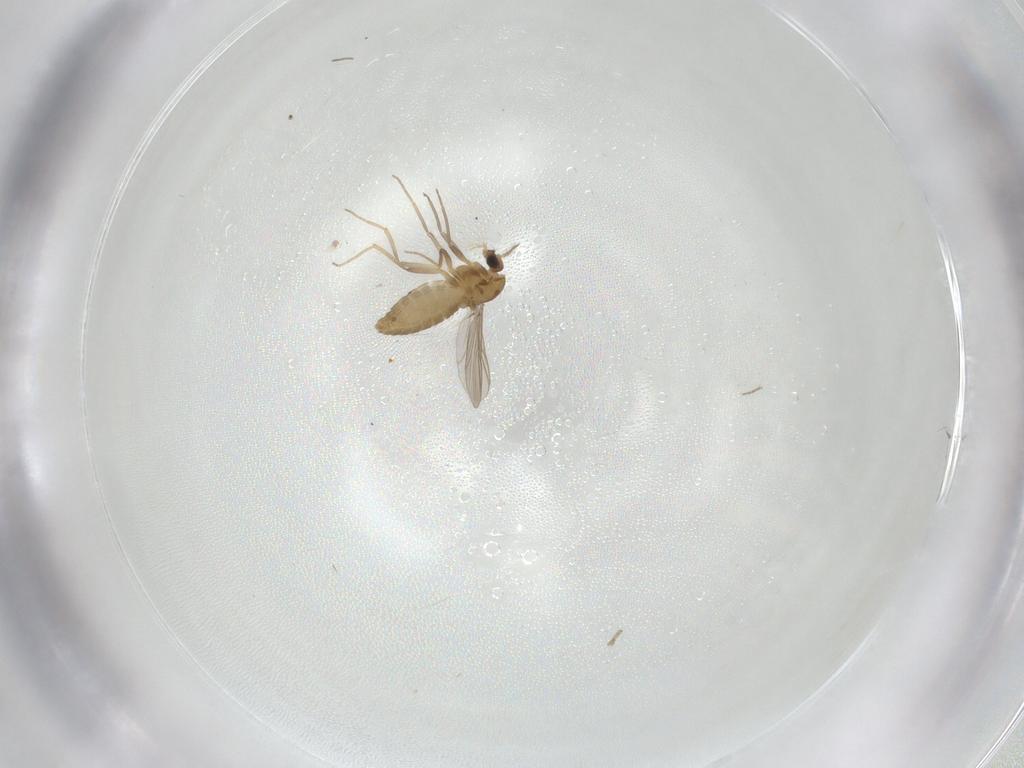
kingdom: Animalia
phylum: Arthropoda
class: Insecta
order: Diptera
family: Chironomidae
